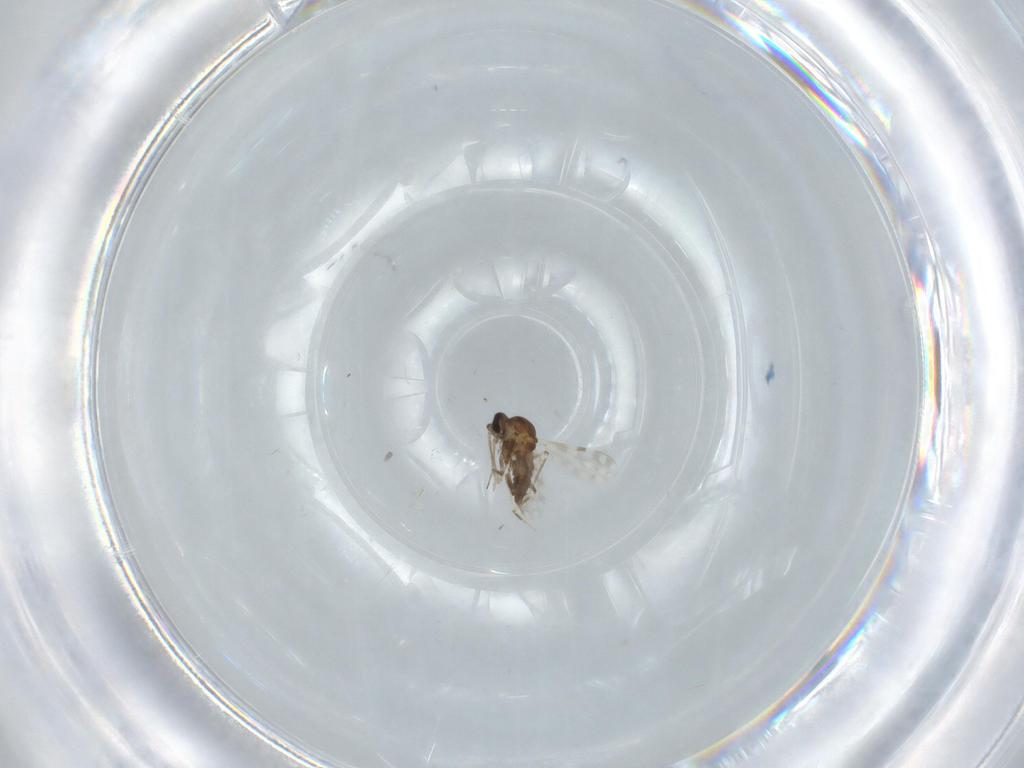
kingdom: Animalia
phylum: Arthropoda
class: Insecta
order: Diptera
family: Ceratopogonidae
